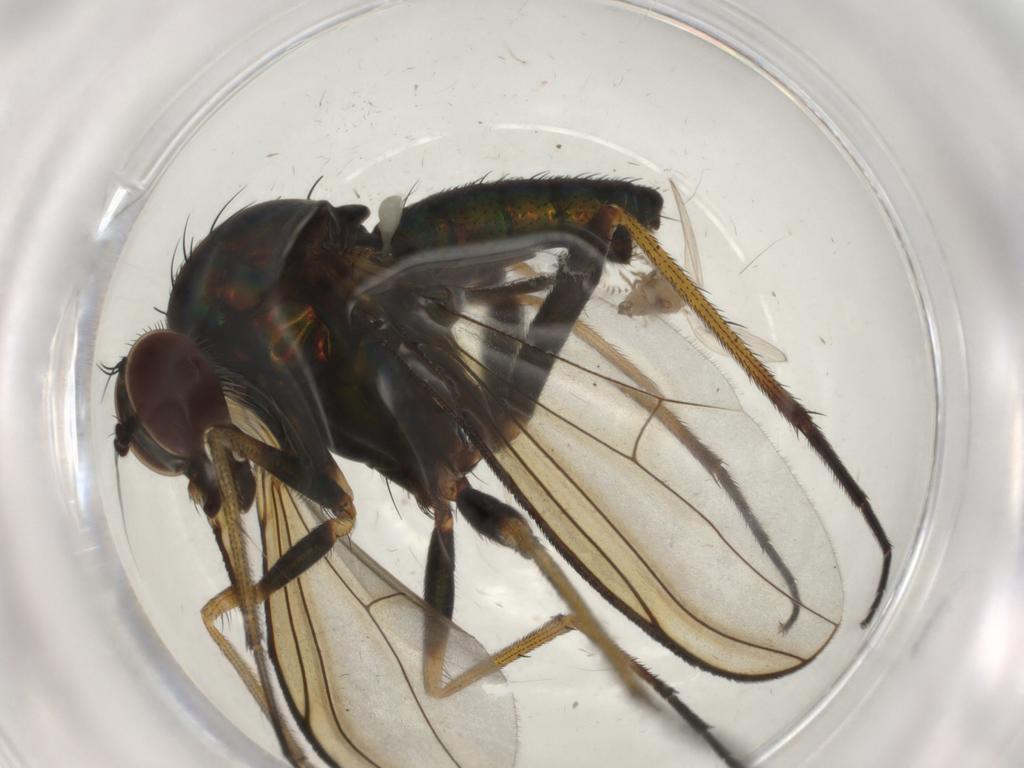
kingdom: Animalia
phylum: Arthropoda
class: Insecta
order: Diptera
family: Dolichopodidae
